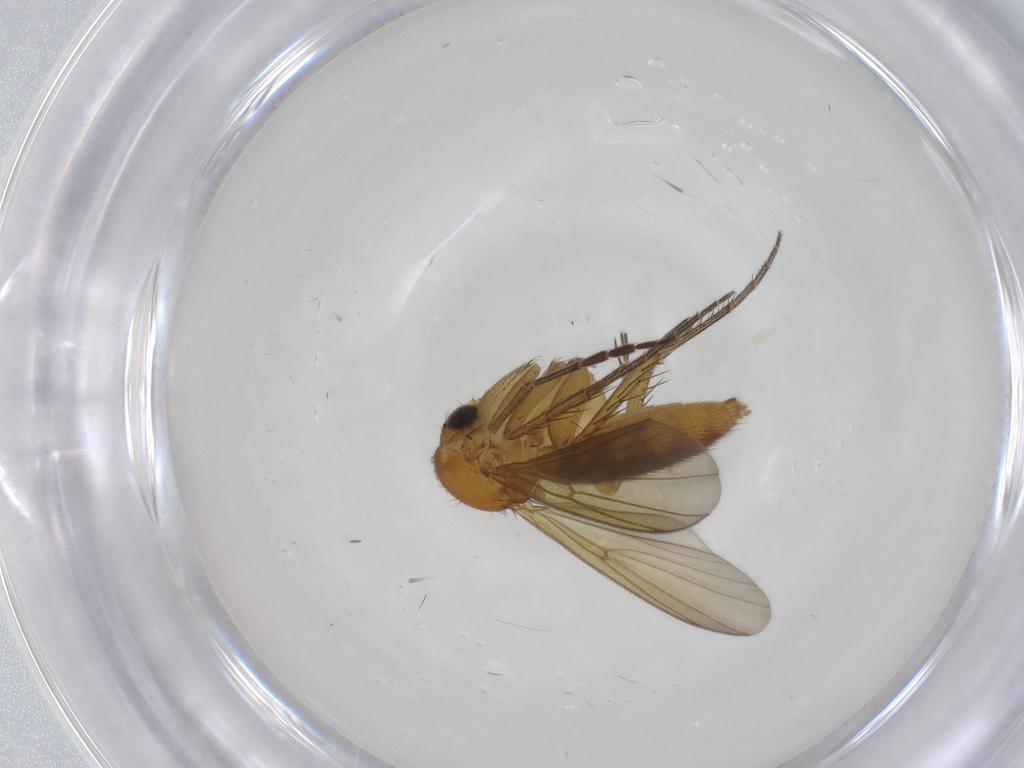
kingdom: Animalia
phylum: Arthropoda
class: Insecta
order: Diptera
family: Mycetophilidae
